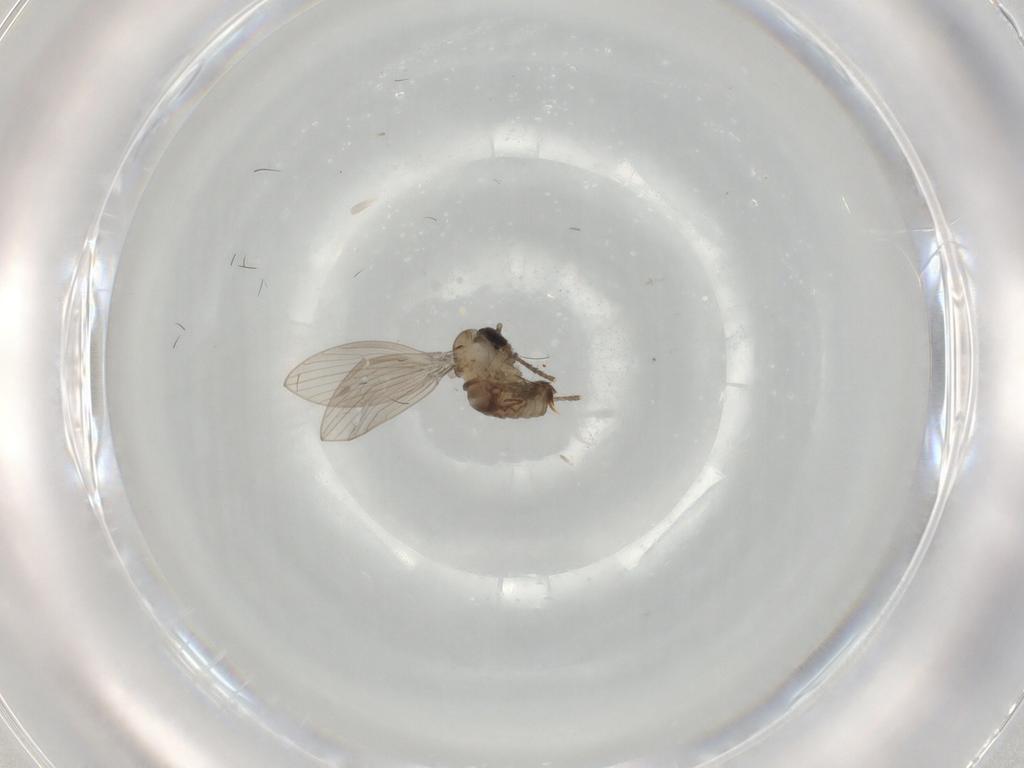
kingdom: Animalia
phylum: Arthropoda
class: Insecta
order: Diptera
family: Psychodidae
